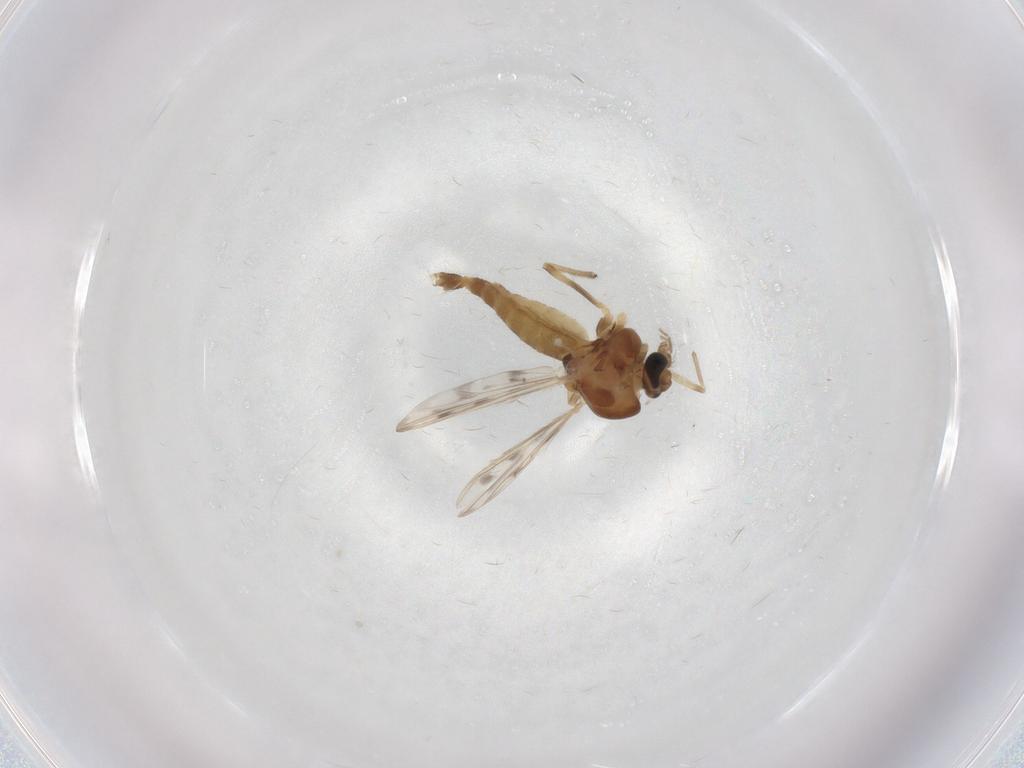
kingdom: Animalia
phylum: Arthropoda
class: Insecta
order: Diptera
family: Chironomidae
